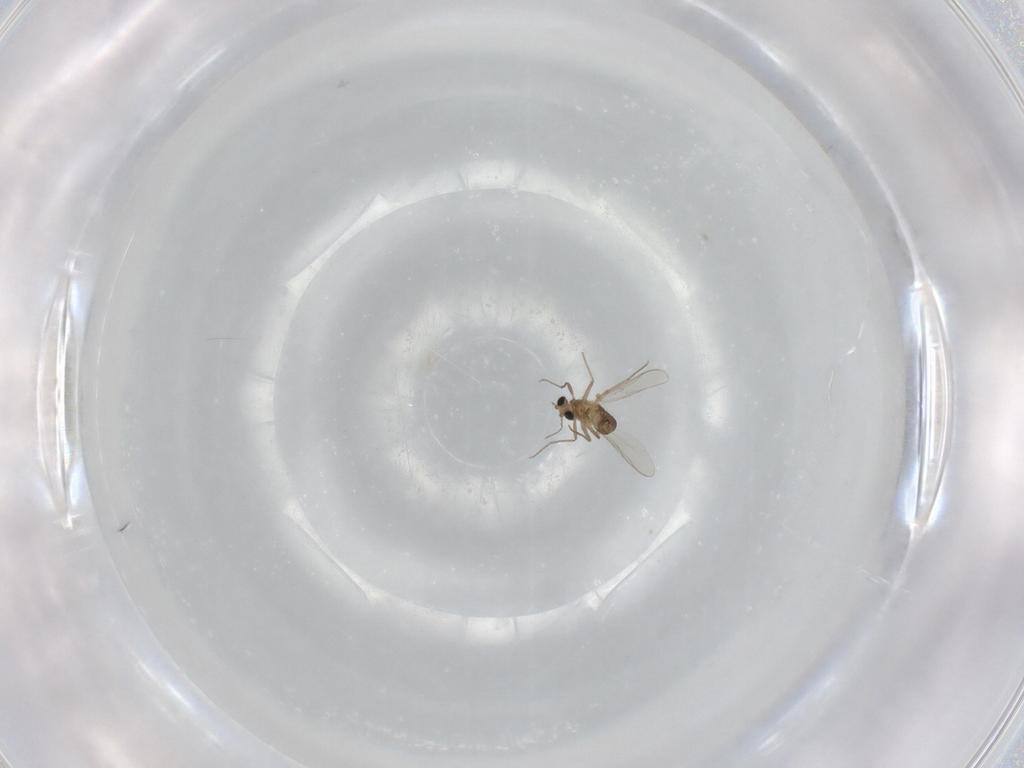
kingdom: Animalia
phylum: Arthropoda
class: Insecta
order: Diptera
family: Chironomidae
